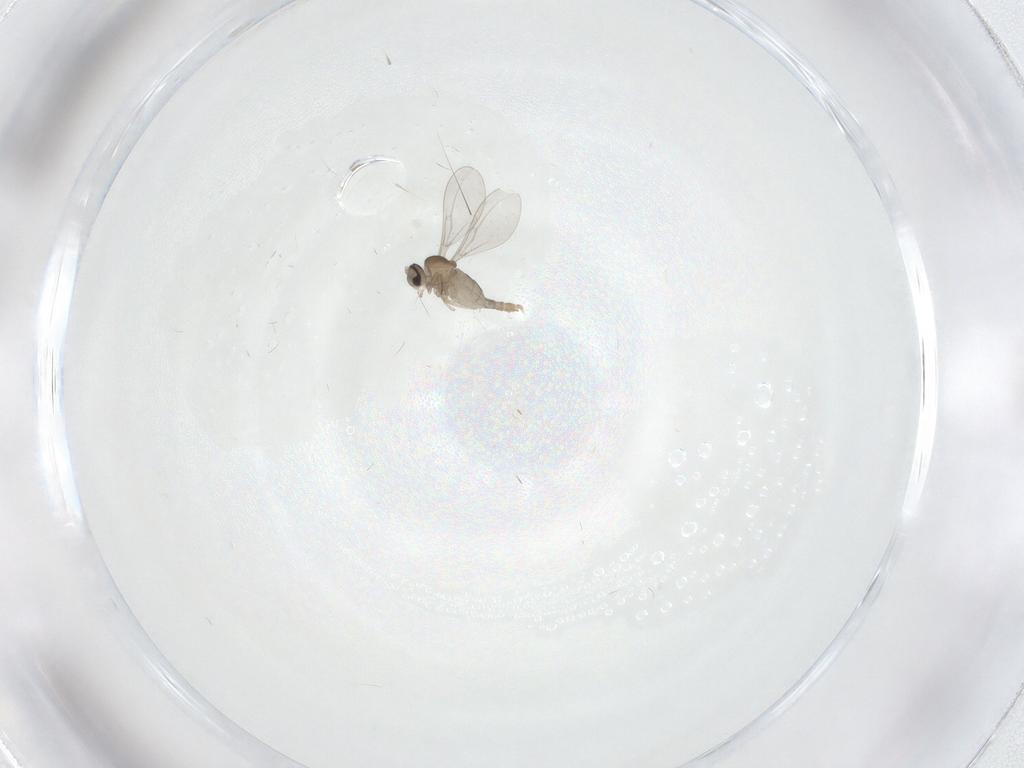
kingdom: Animalia
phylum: Arthropoda
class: Insecta
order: Diptera
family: Cecidomyiidae
